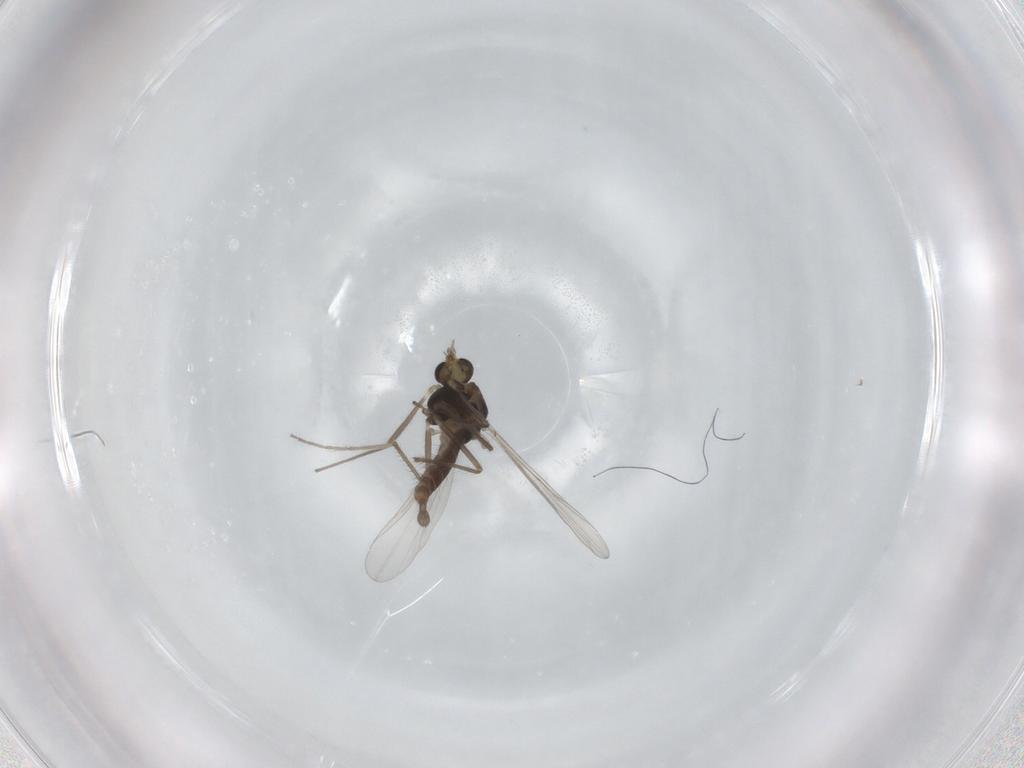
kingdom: Animalia
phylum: Arthropoda
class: Insecta
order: Diptera
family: Chironomidae
